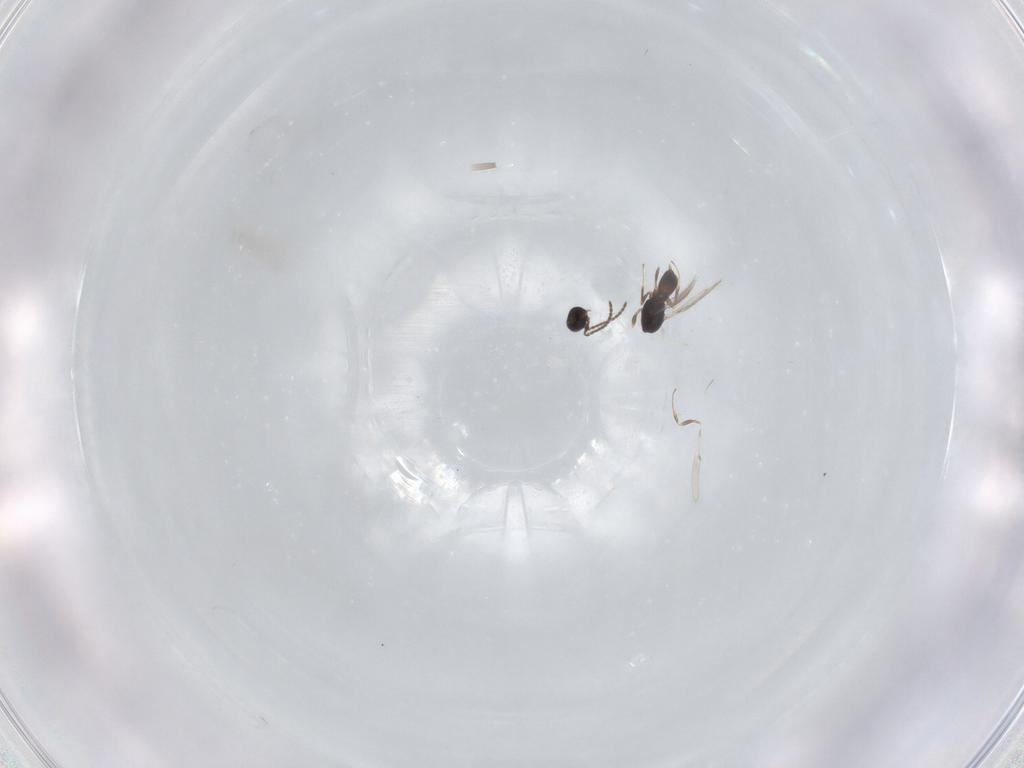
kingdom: Animalia
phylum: Arthropoda
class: Insecta
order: Hymenoptera
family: Scelionidae
